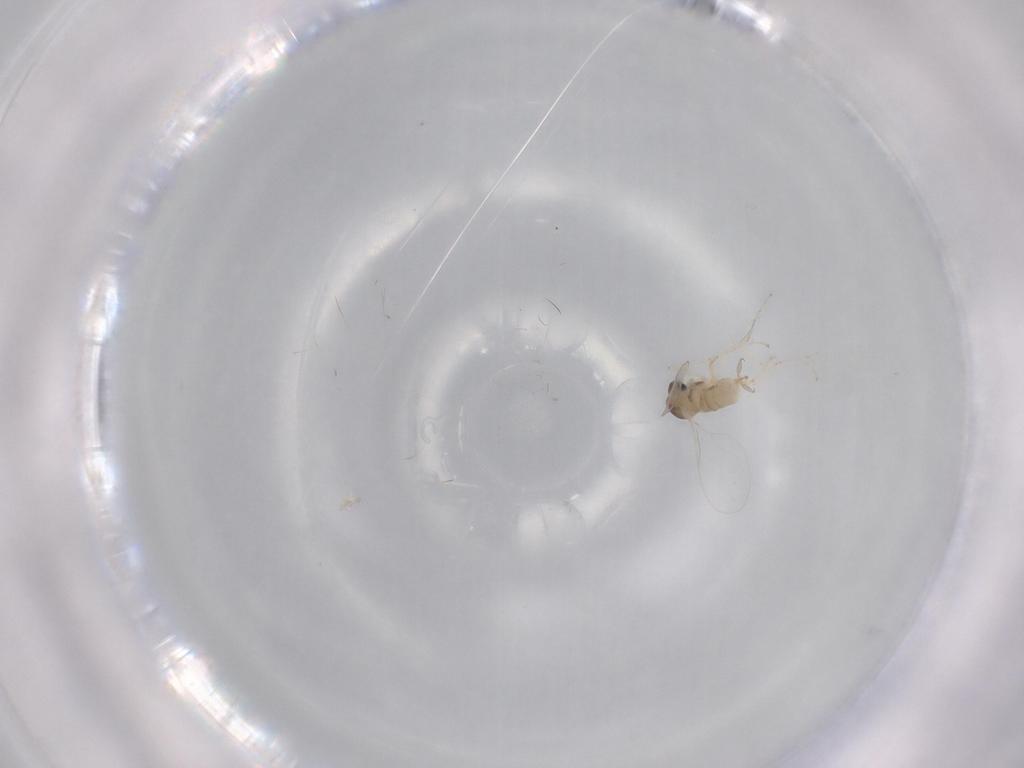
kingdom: Animalia
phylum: Arthropoda
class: Insecta
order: Diptera
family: Cecidomyiidae
